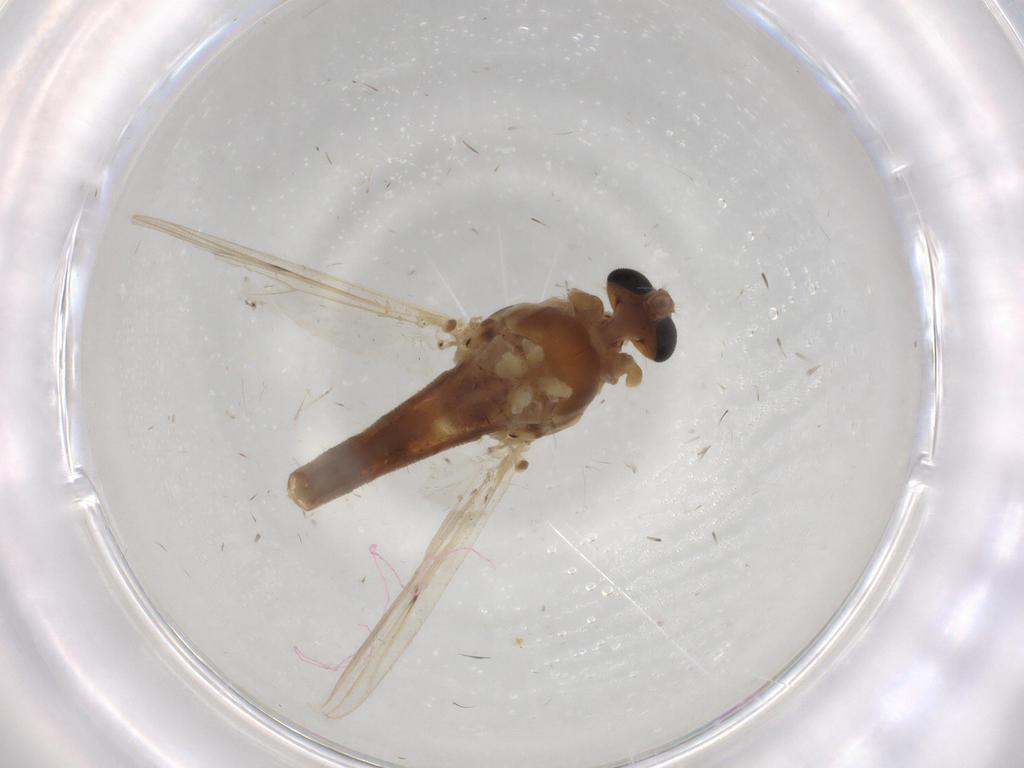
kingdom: Animalia
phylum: Arthropoda
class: Insecta
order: Diptera
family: Chironomidae
